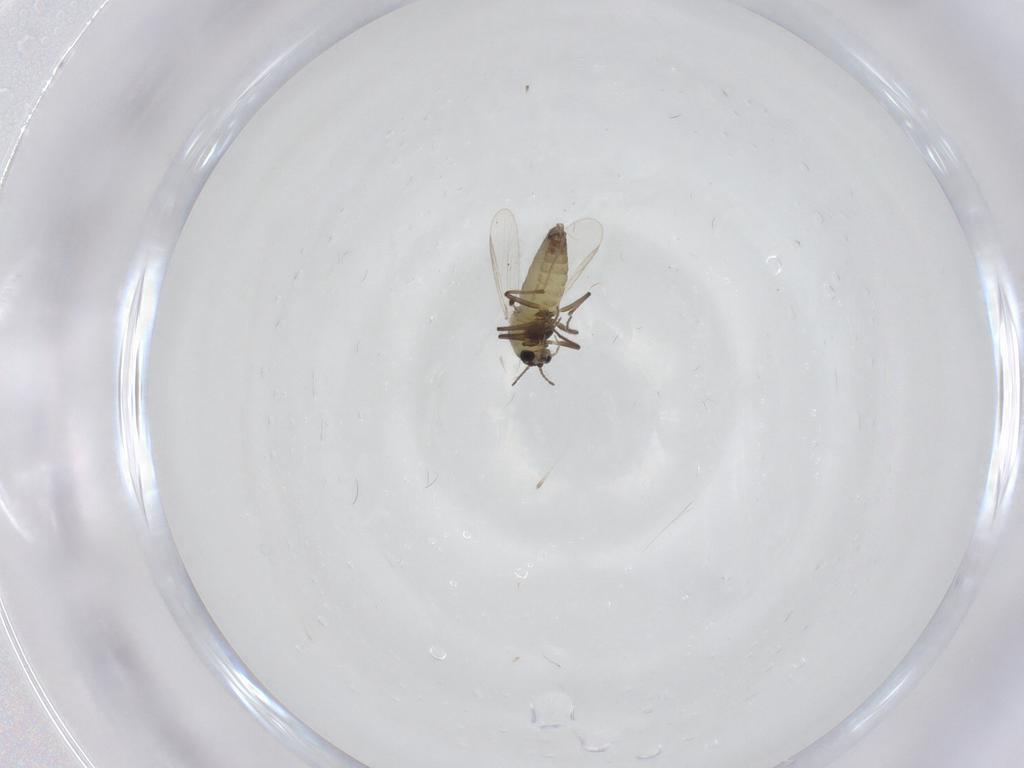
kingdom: Animalia
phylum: Arthropoda
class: Insecta
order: Diptera
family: Chironomidae
